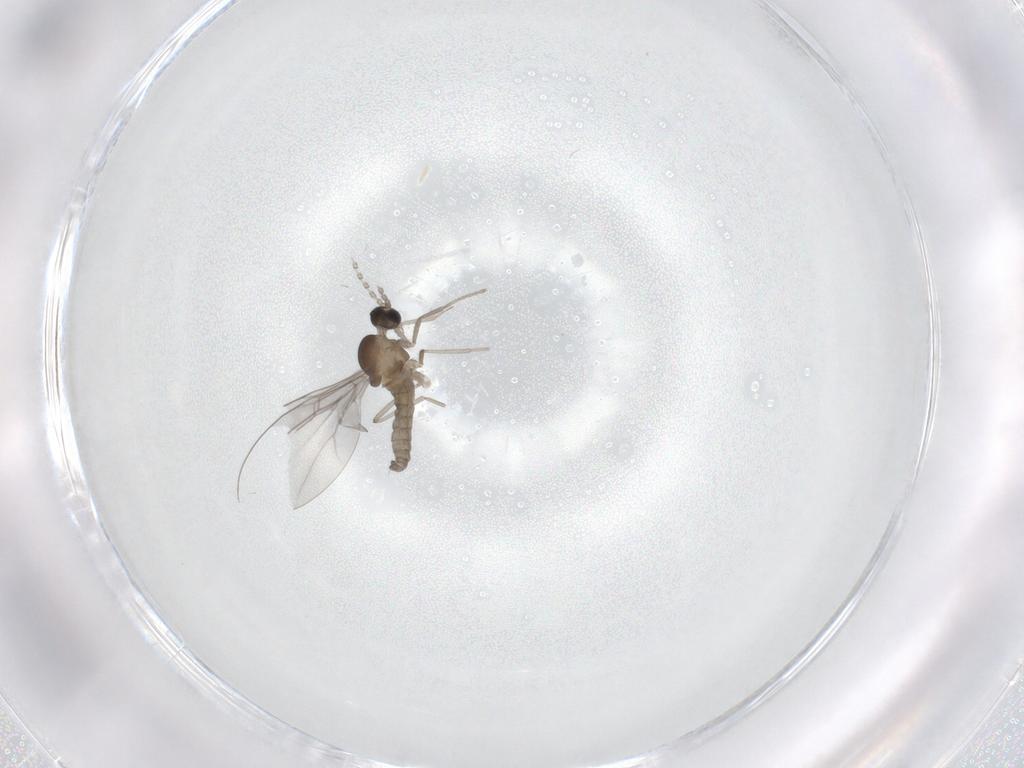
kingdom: Animalia
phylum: Arthropoda
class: Insecta
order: Diptera
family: Cecidomyiidae
